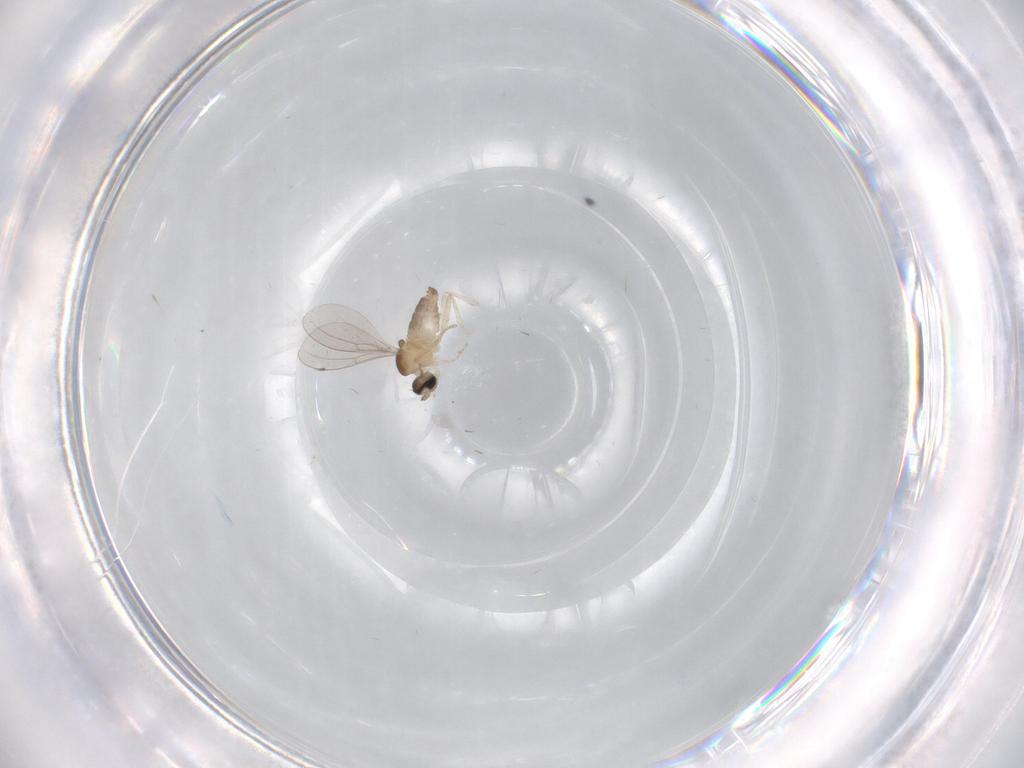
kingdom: Animalia
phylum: Arthropoda
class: Insecta
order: Diptera
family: Cecidomyiidae
